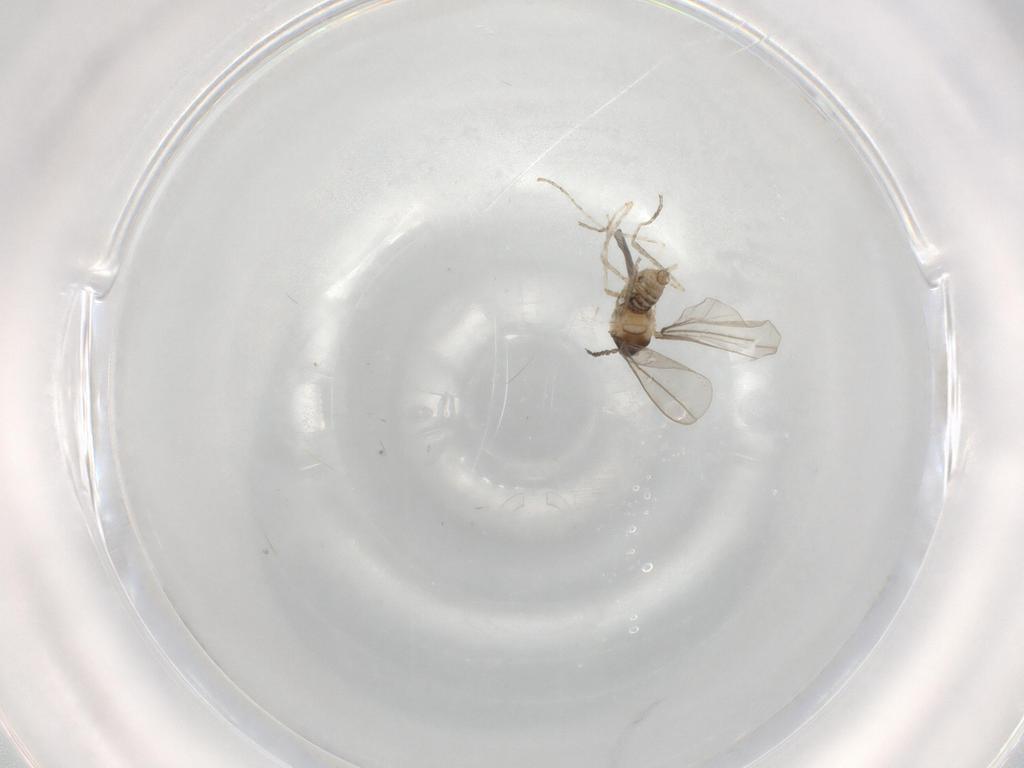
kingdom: Animalia
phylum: Arthropoda
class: Insecta
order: Diptera
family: Cecidomyiidae
